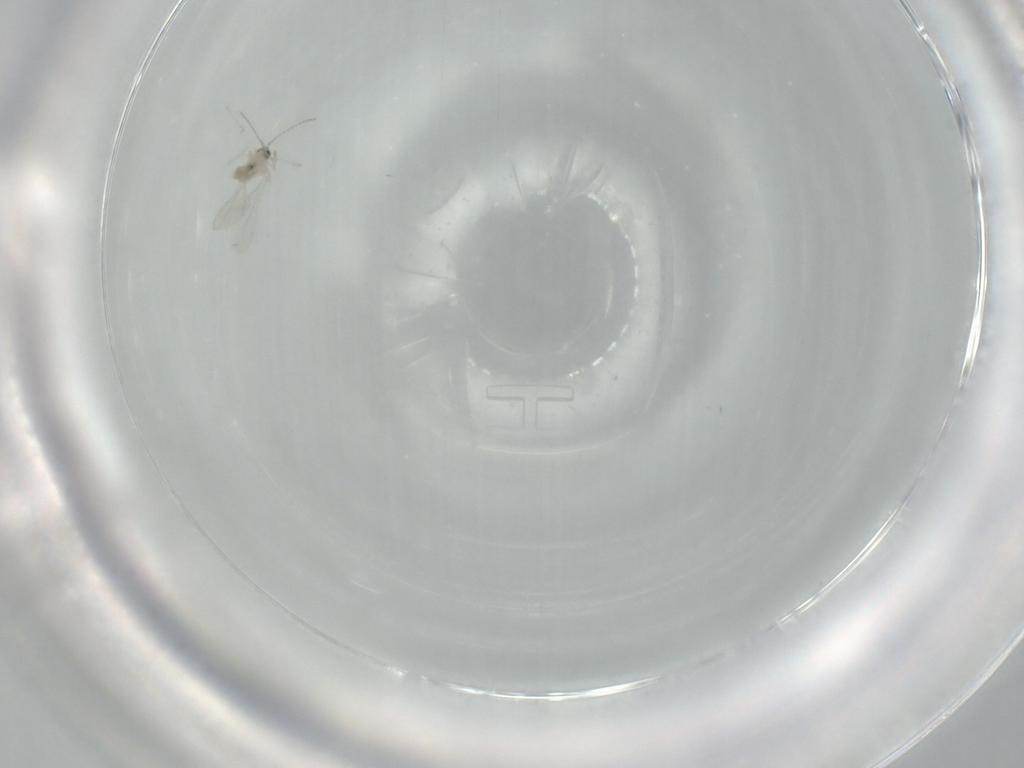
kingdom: Animalia
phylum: Arthropoda
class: Insecta
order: Diptera
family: Cecidomyiidae
